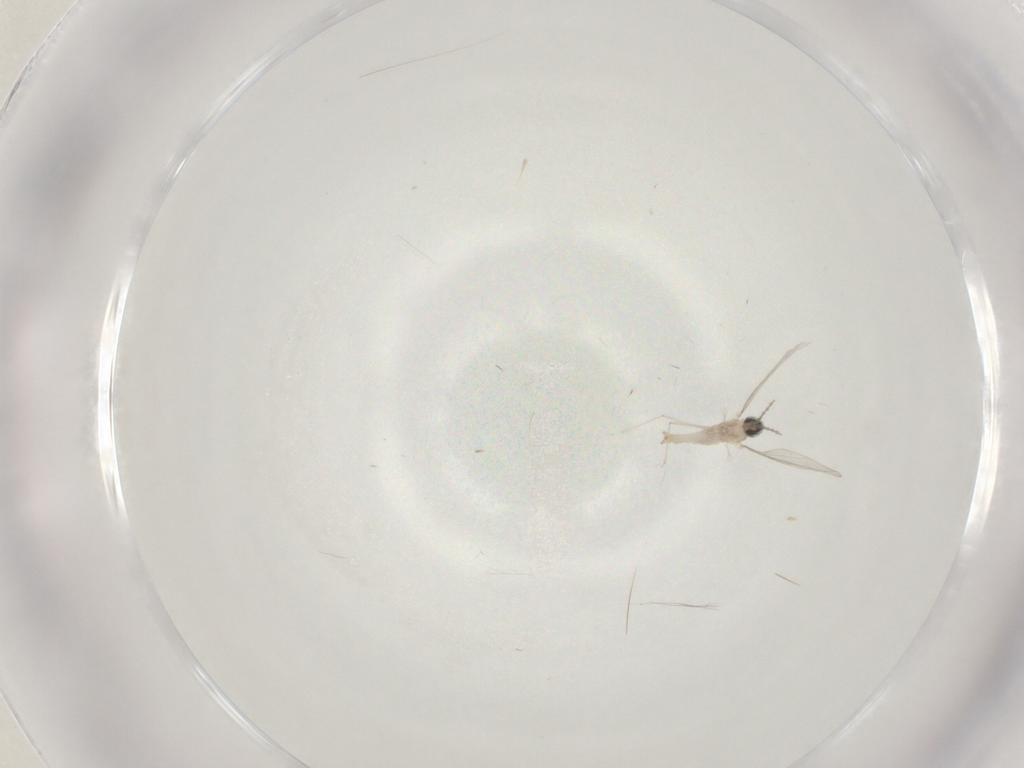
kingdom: Animalia
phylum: Arthropoda
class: Insecta
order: Diptera
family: Cecidomyiidae
